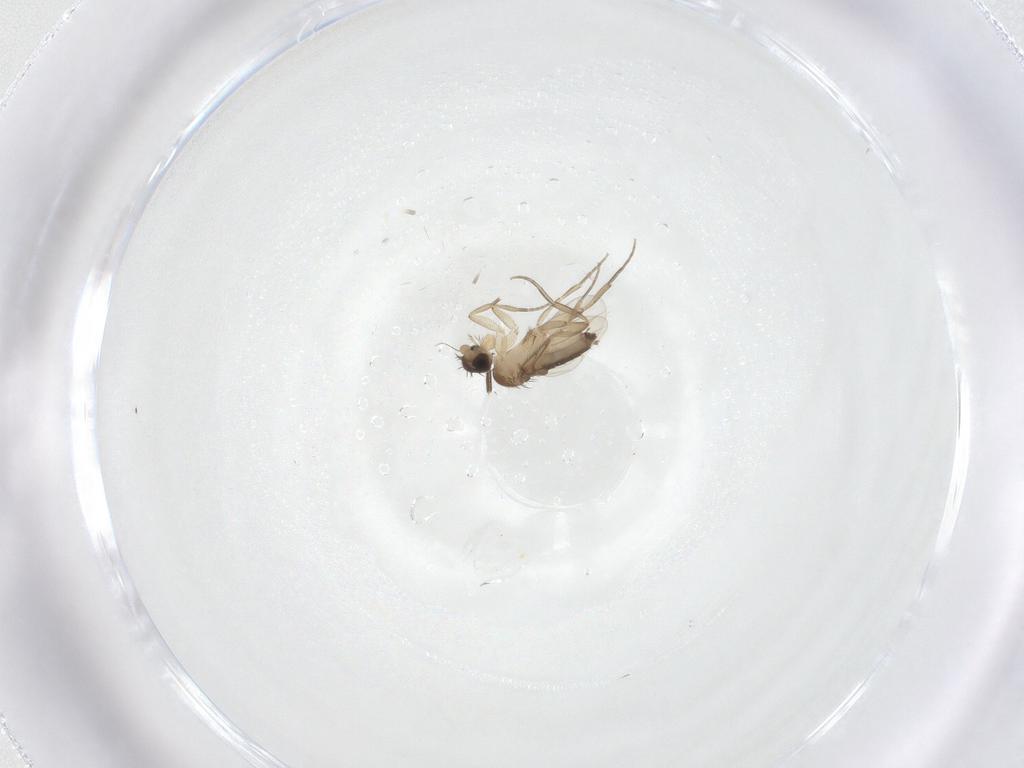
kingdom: Animalia
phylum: Arthropoda
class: Insecta
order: Diptera
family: Phoridae
